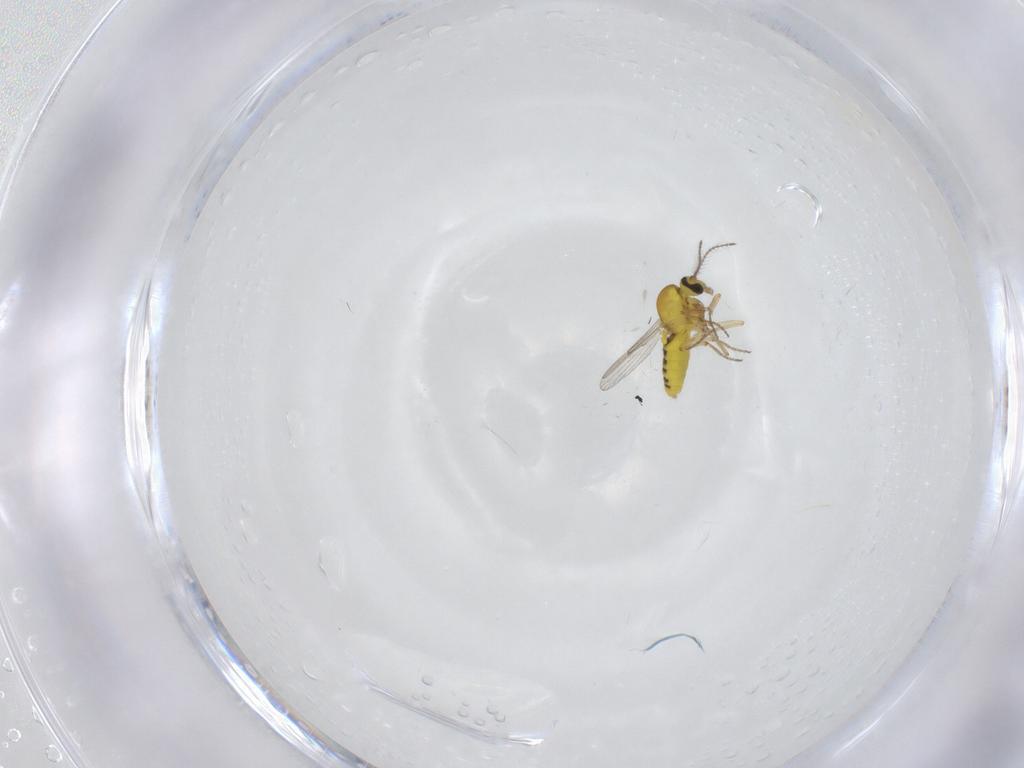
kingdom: Animalia
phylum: Arthropoda
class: Insecta
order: Diptera
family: Ceratopogonidae
